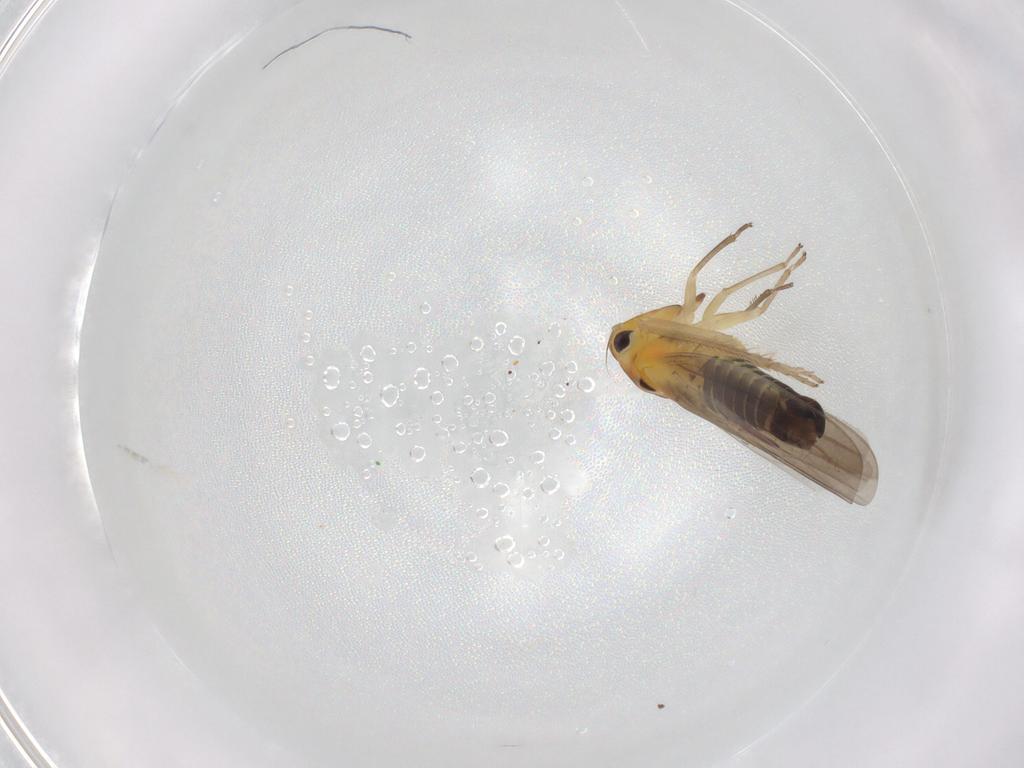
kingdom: Animalia
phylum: Arthropoda
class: Insecta
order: Hemiptera
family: Cicadellidae
